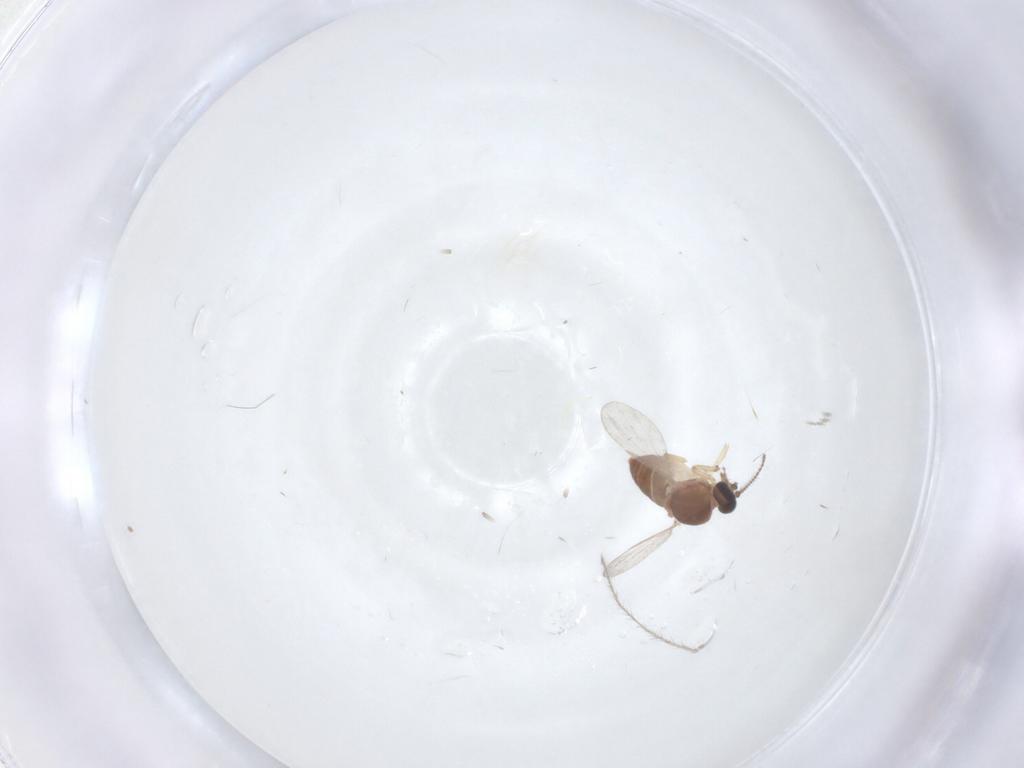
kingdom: Animalia
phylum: Arthropoda
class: Insecta
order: Diptera
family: Ceratopogonidae
